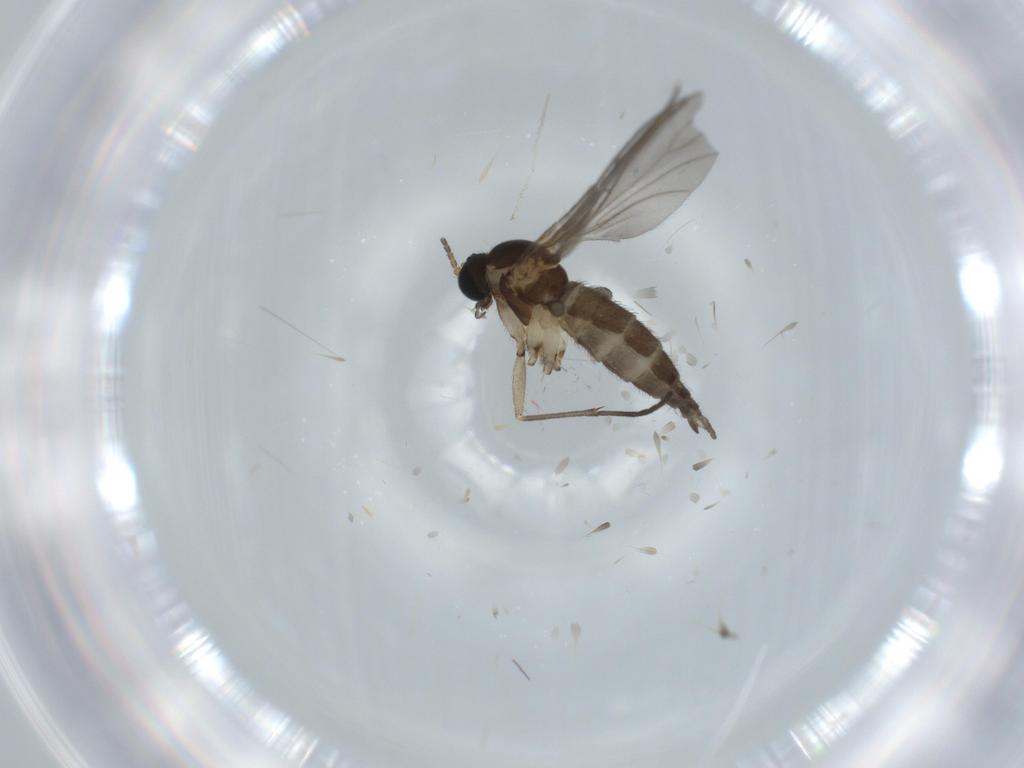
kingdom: Animalia
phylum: Arthropoda
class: Insecta
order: Diptera
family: Sciaridae
